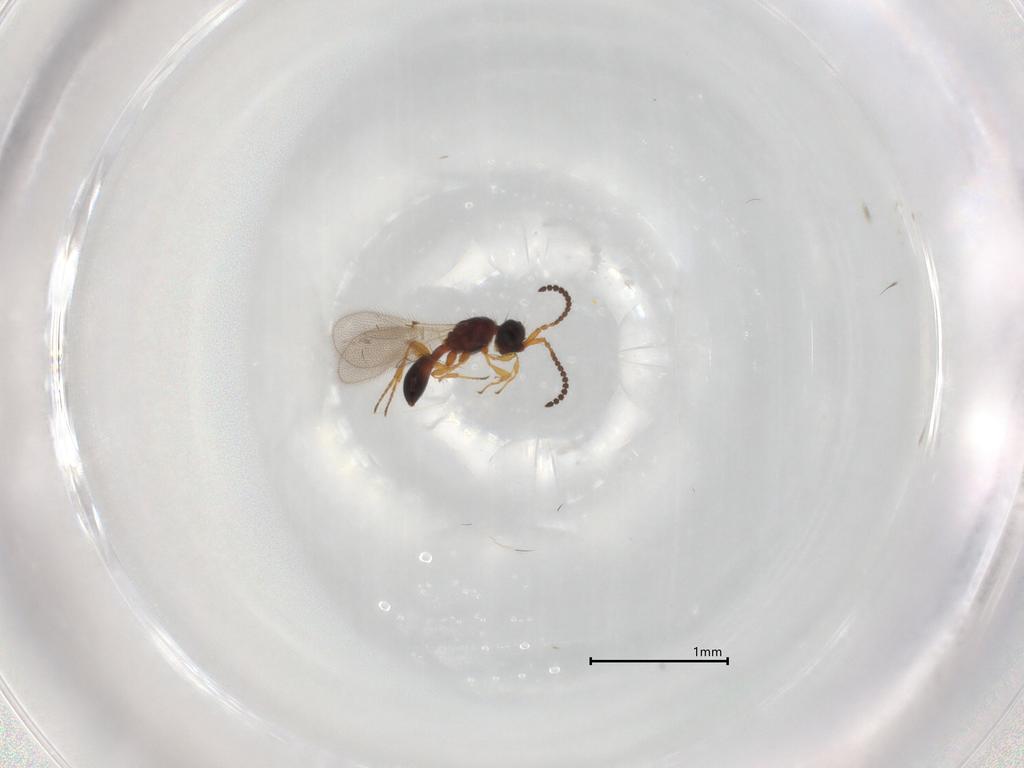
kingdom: Animalia
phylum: Arthropoda
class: Insecta
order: Hymenoptera
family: Diapriidae
